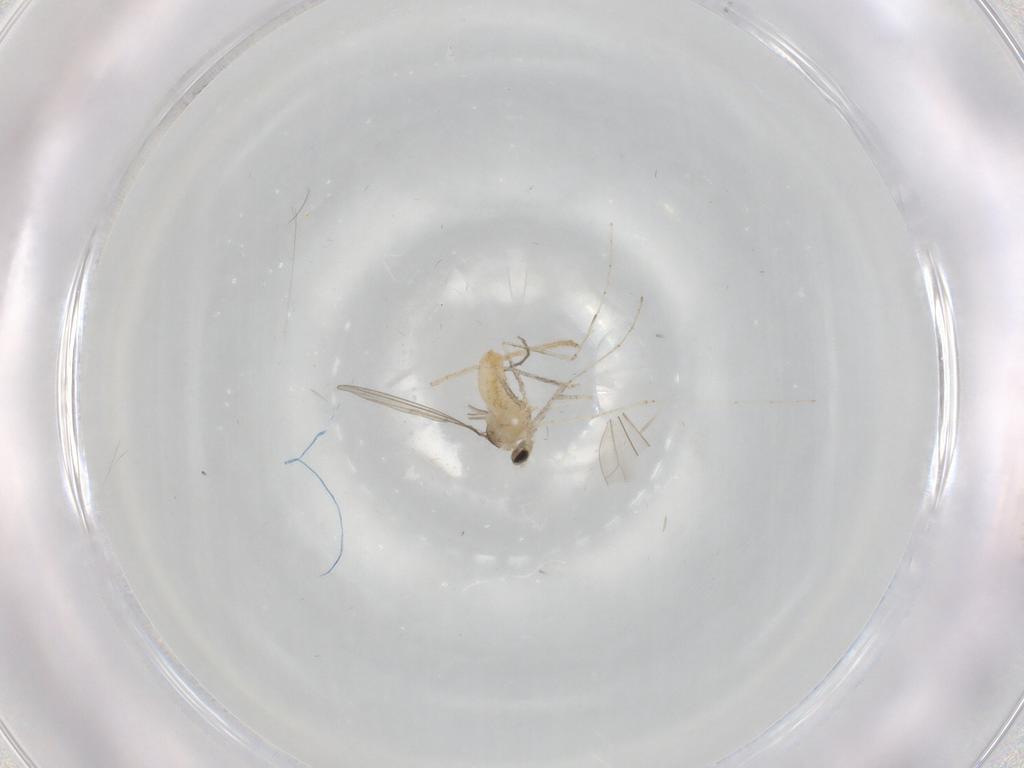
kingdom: Animalia
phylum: Arthropoda
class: Insecta
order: Diptera
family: Cecidomyiidae
